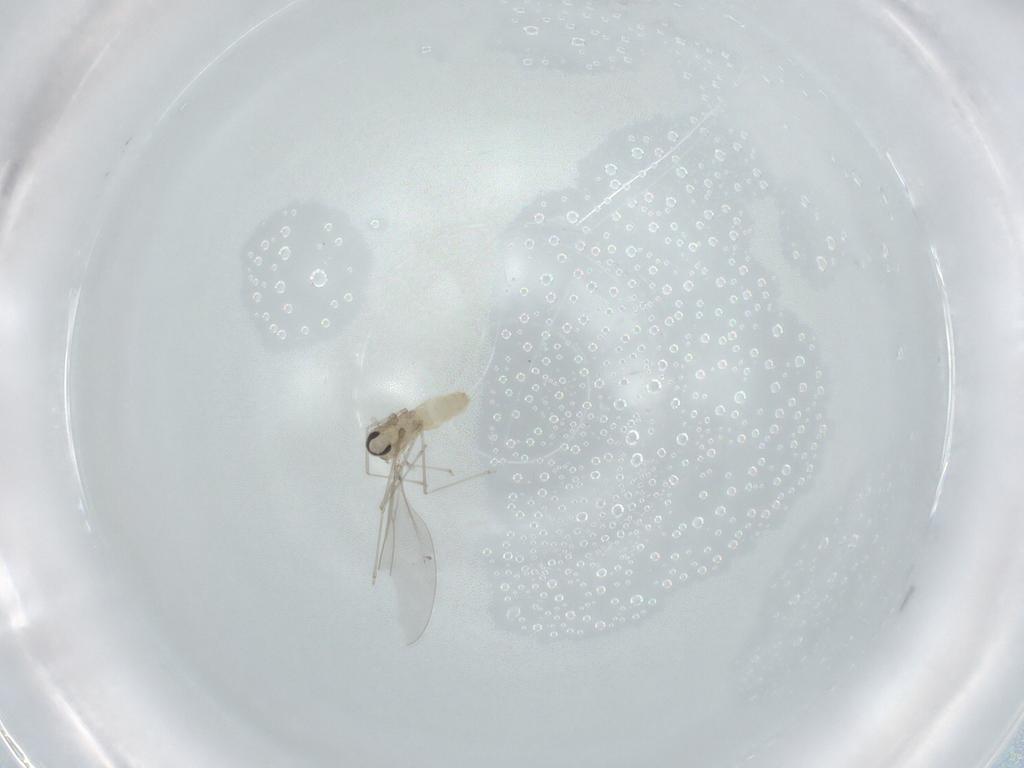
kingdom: Animalia
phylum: Arthropoda
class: Insecta
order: Diptera
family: Cecidomyiidae
